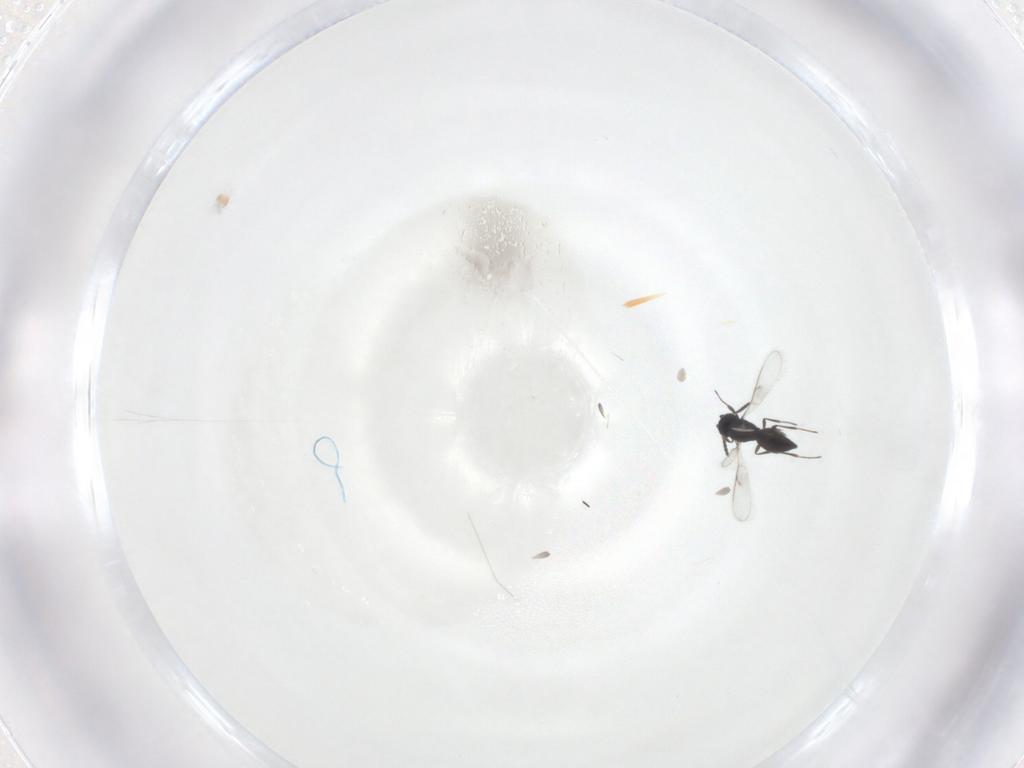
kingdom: Animalia
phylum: Arthropoda
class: Insecta
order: Hymenoptera
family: Scelionidae
